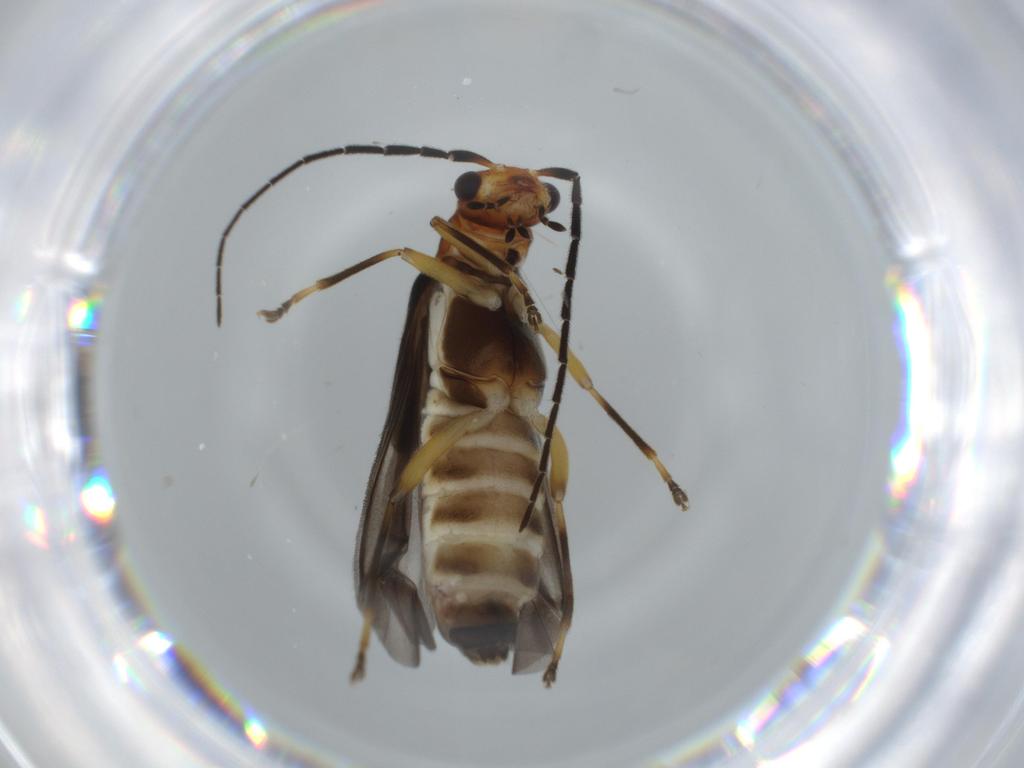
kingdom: Animalia
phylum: Arthropoda
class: Insecta
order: Coleoptera
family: Cantharidae
